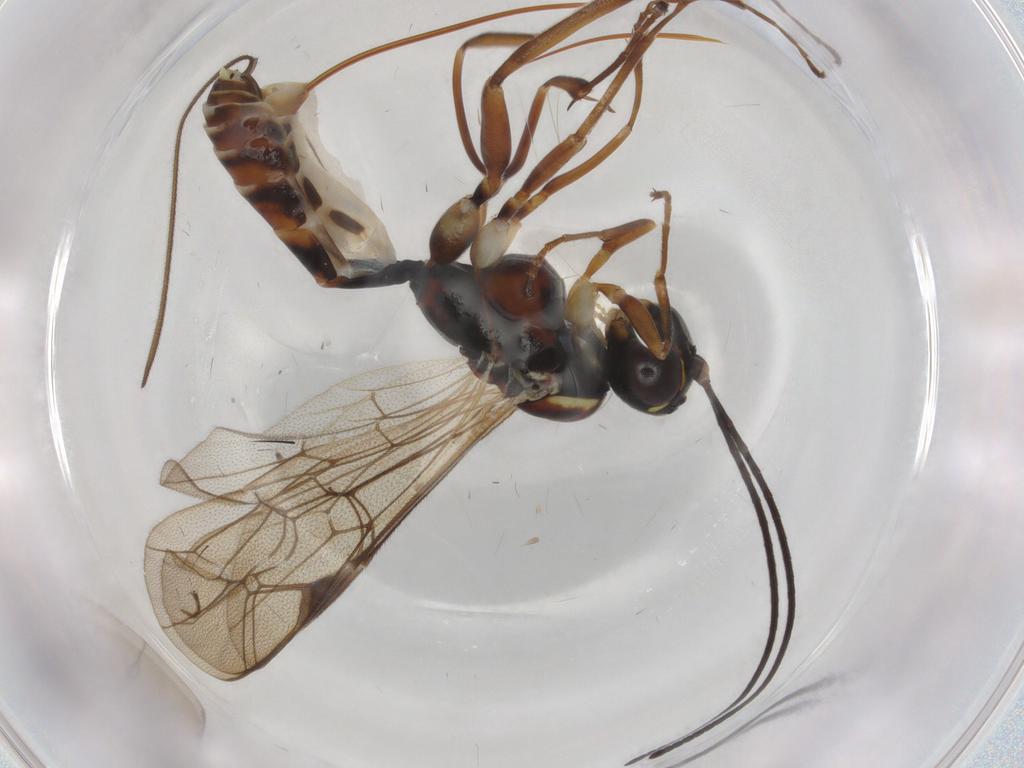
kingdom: Animalia
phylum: Arthropoda
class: Insecta
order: Hymenoptera
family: Ichneumonidae
